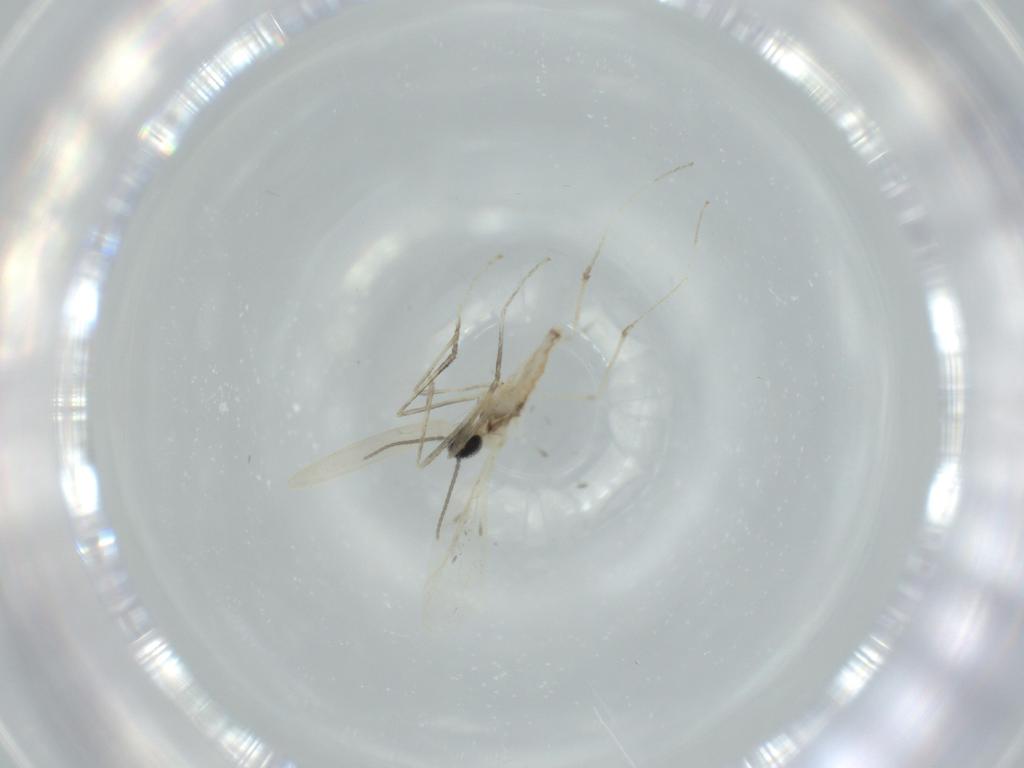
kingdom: Animalia
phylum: Arthropoda
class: Insecta
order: Diptera
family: Cecidomyiidae
